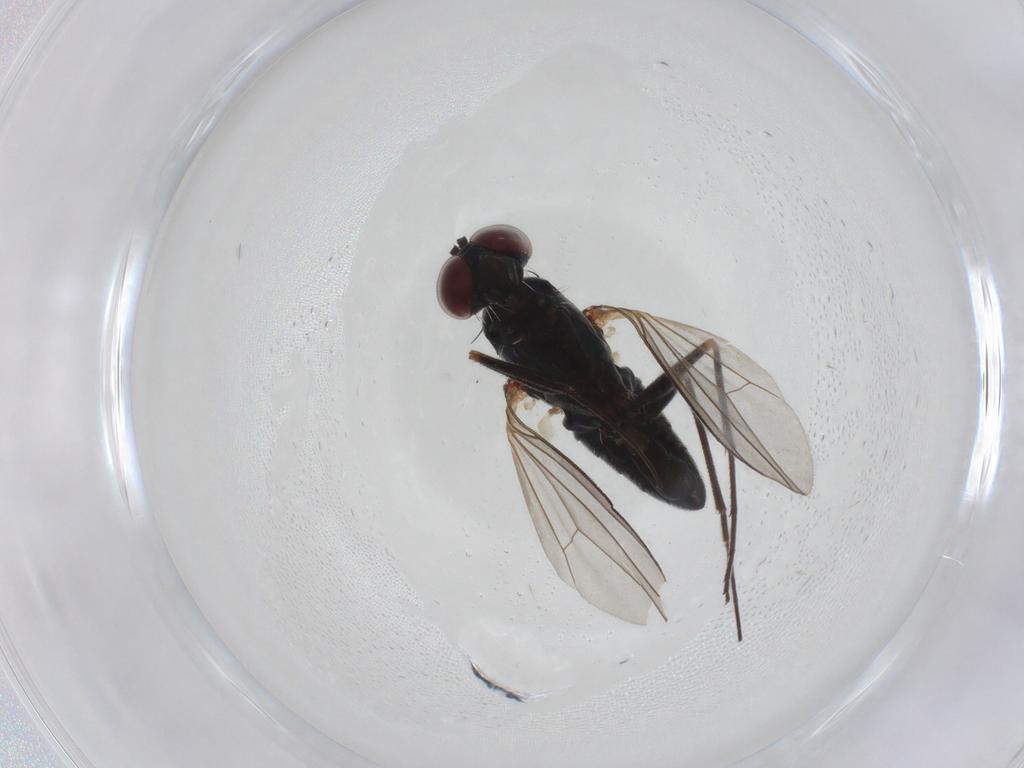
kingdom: Animalia
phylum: Arthropoda
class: Insecta
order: Diptera
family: Dolichopodidae
